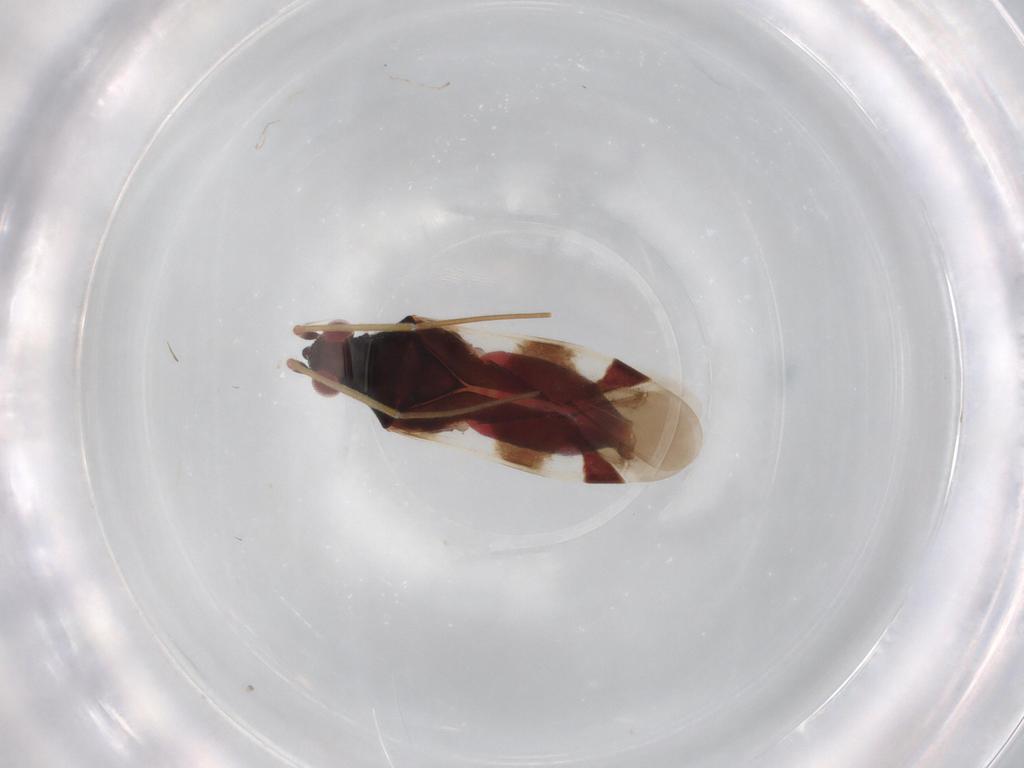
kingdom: Animalia
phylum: Arthropoda
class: Insecta
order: Hemiptera
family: Miridae
